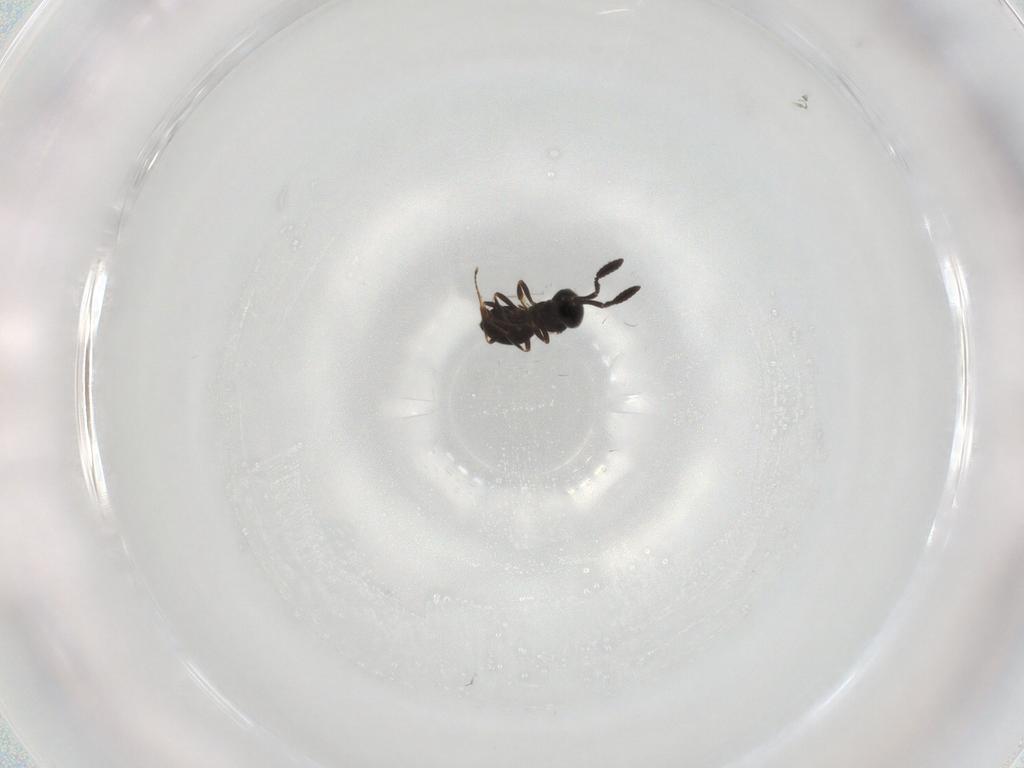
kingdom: Animalia
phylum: Arthropoda
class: Insecta
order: Hymenoptera
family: Scelionidae
